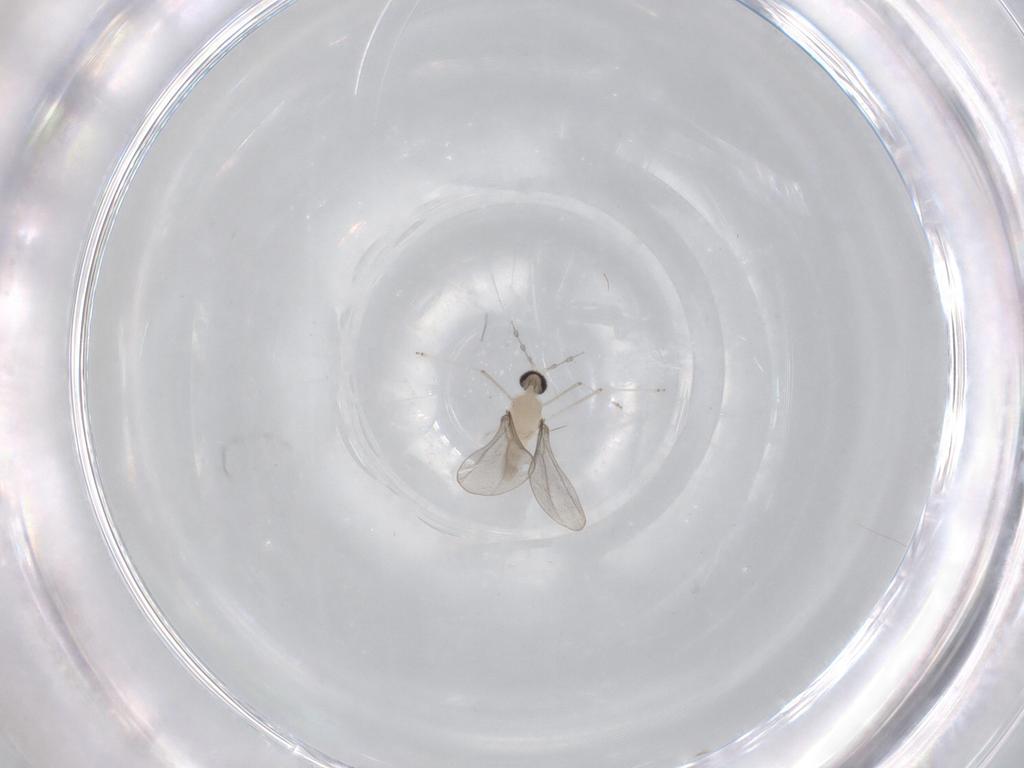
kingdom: Animalia
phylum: Arthropoda
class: Insecta
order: Diptera
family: Cecidomyiidae
